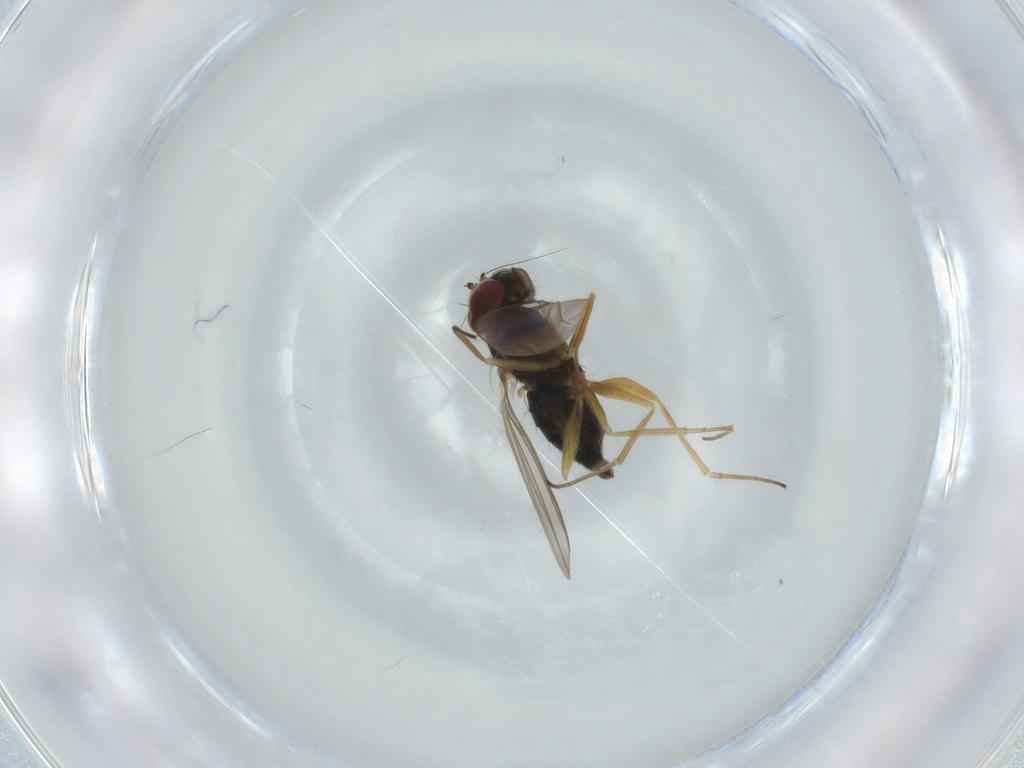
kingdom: Animalia
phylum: Arthropoda
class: Insecta
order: Diptera
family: Dolichopodidae
